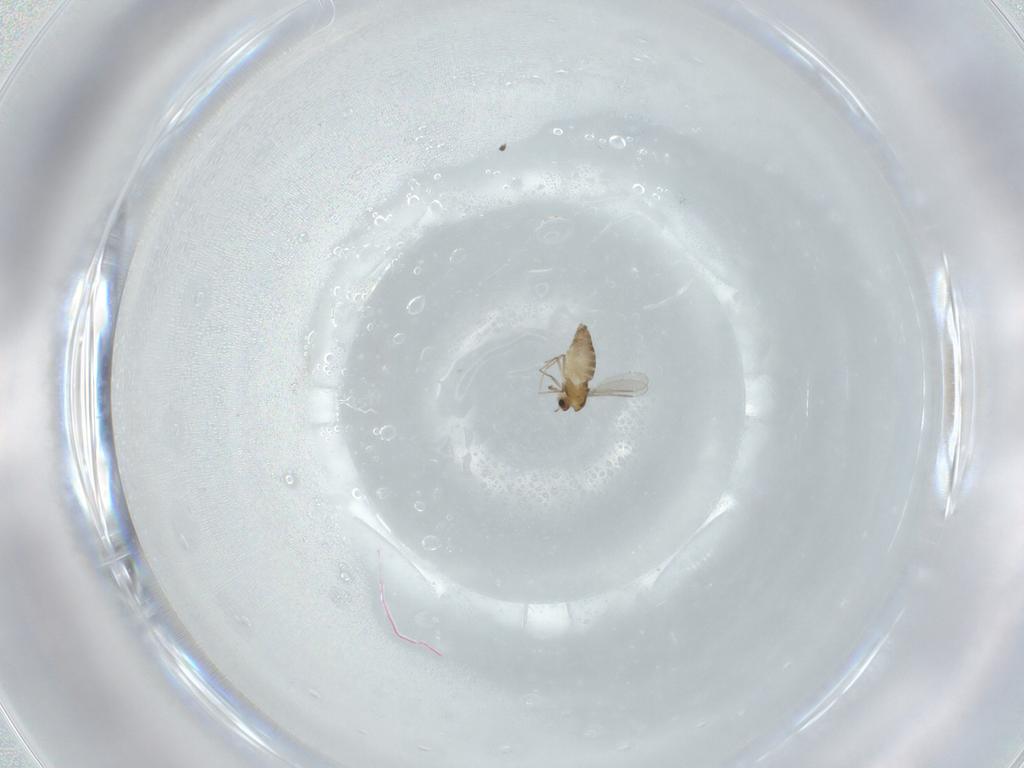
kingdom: Animalia
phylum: Arthropoda
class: Insecta
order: Diptera
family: Chironomidae
